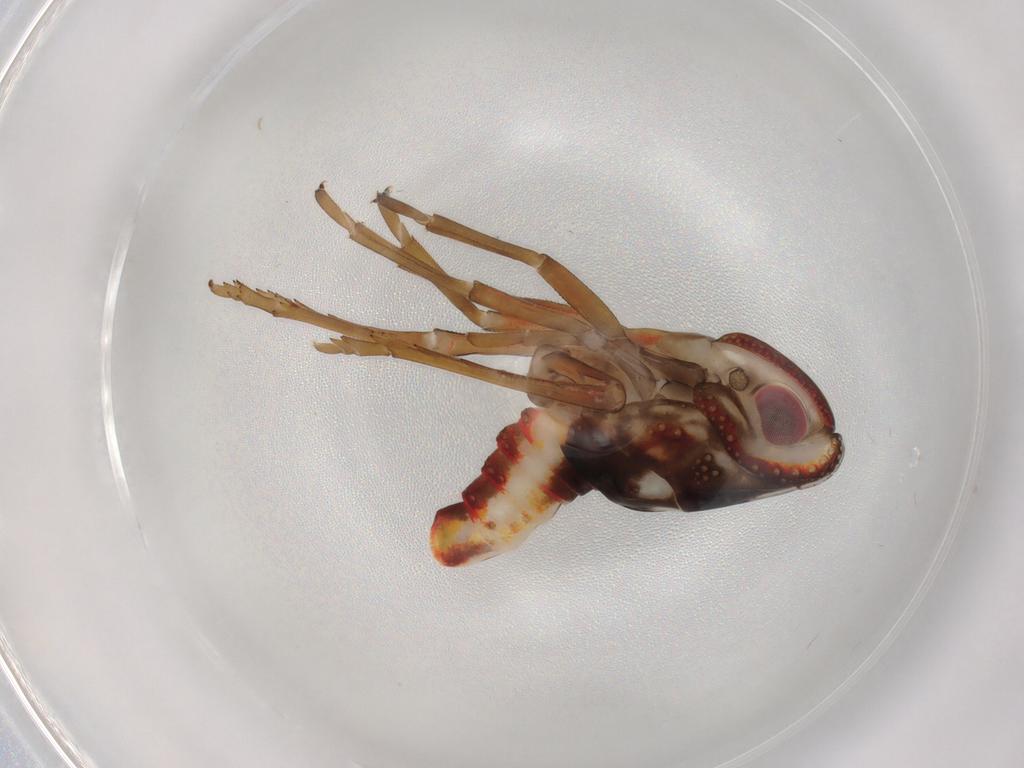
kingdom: Animalia
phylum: Arthropoda
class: Insecta
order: Hemiptera
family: Nogodinidae
